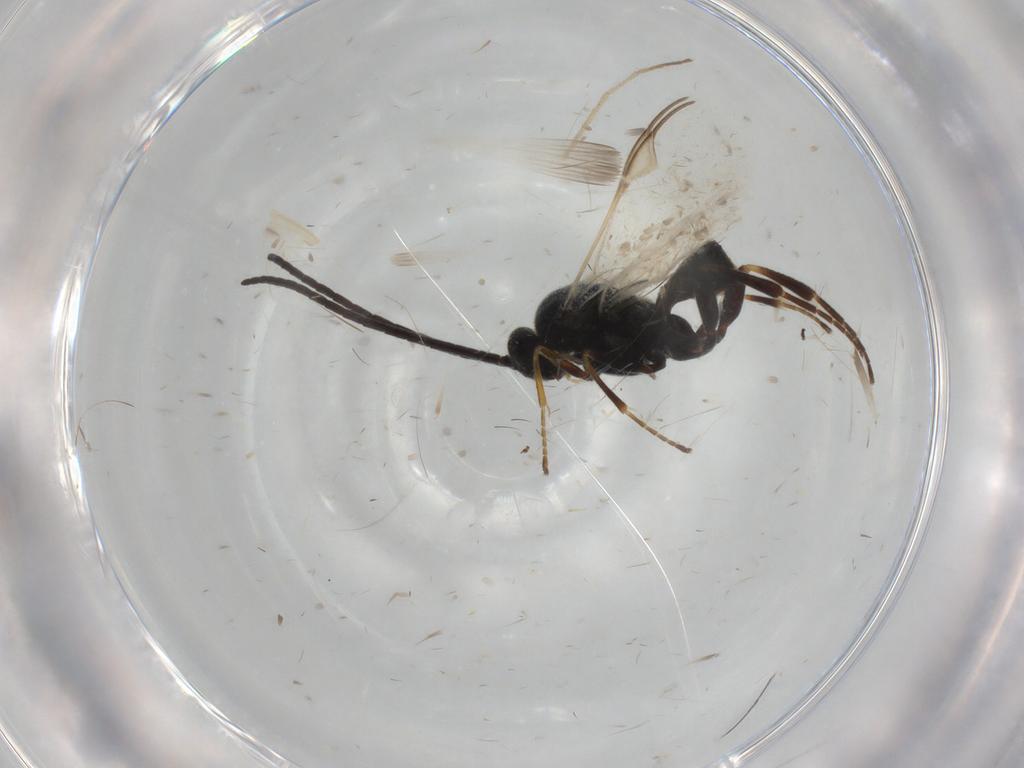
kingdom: Animalia
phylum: Arthropoda
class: Insecta
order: Hymenoptera
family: Braconidae
